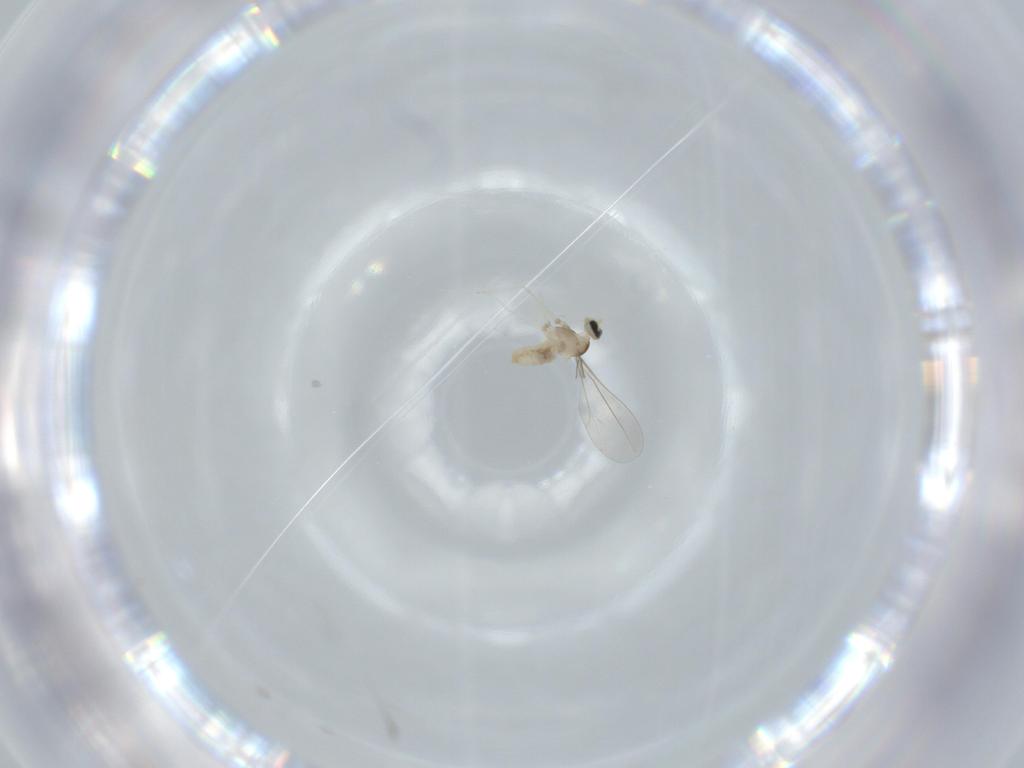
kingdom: Animalia
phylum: Arthropoda
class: Insecta
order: Diptera
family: Cecidomyiidae
